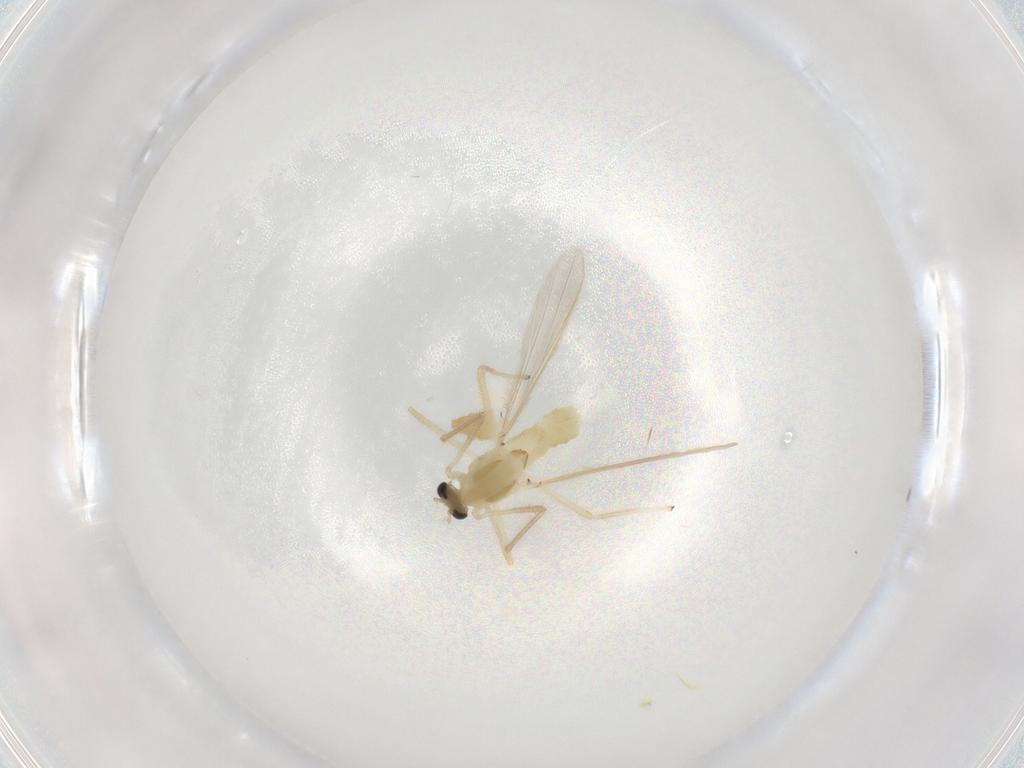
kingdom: Animalia
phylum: Arthropoda
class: Insecta
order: Diptera
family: Chironomidae
